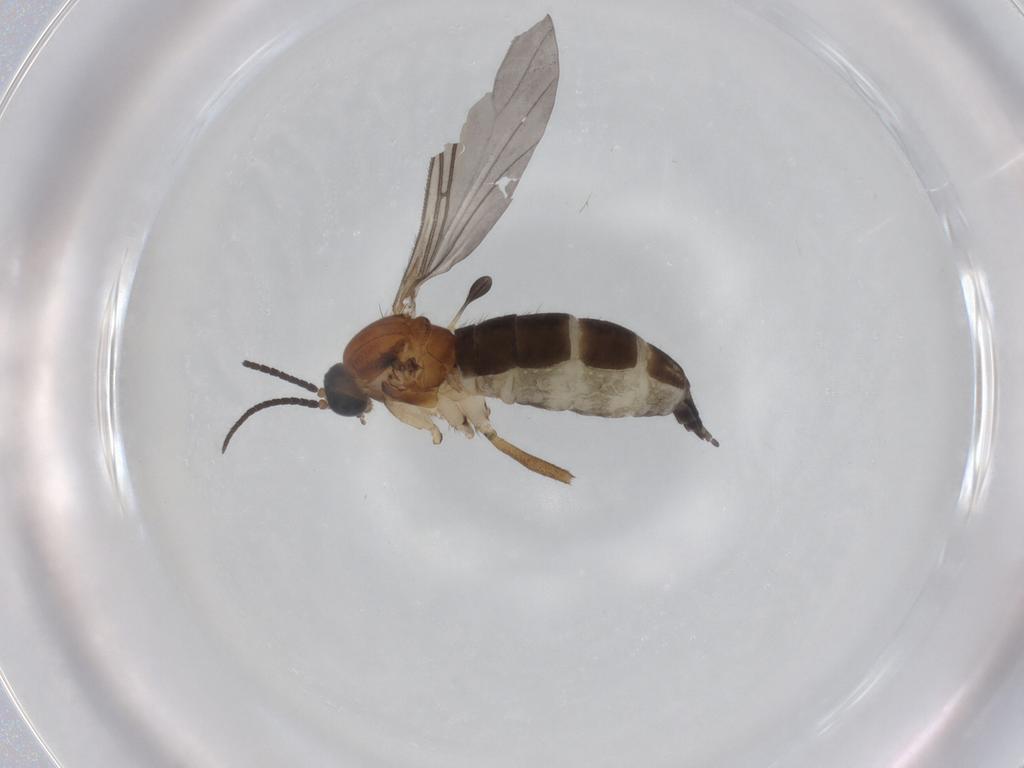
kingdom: Animalia
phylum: Arthropoda
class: Insecta
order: Diptera
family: Sciaridae
